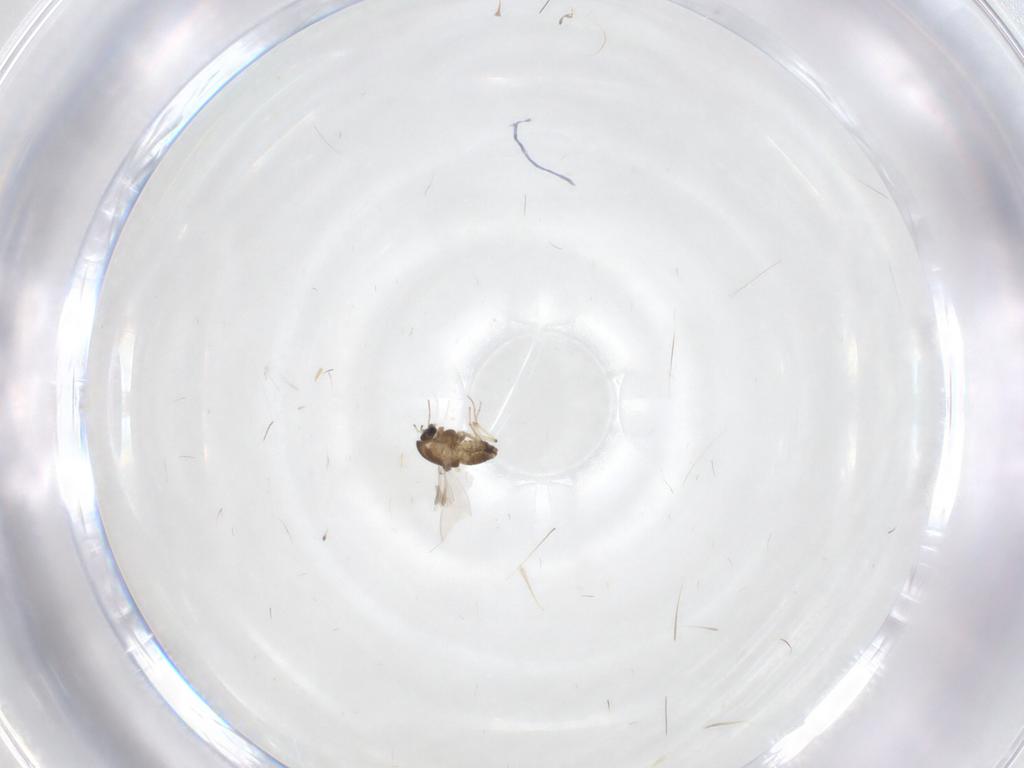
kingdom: Animalia
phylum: Arthropoda
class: Insecta
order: Diptera
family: Chironomidae
